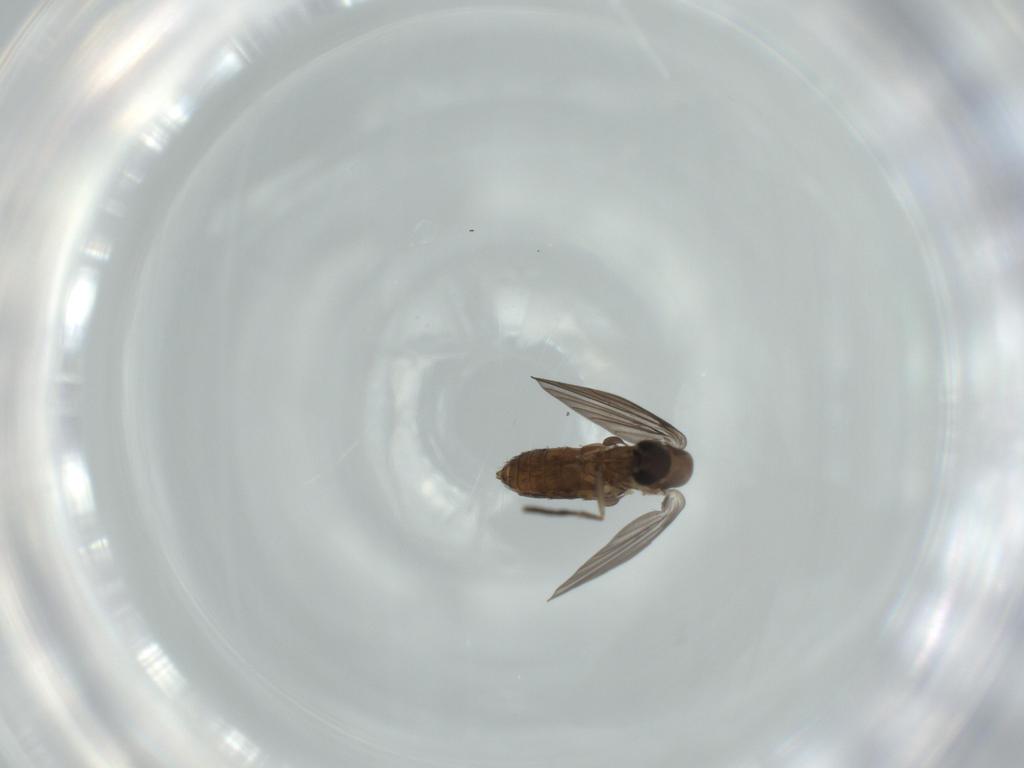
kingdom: Animalia
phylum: Arthropoda
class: Insecta
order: Diptera
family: Psychodidae
